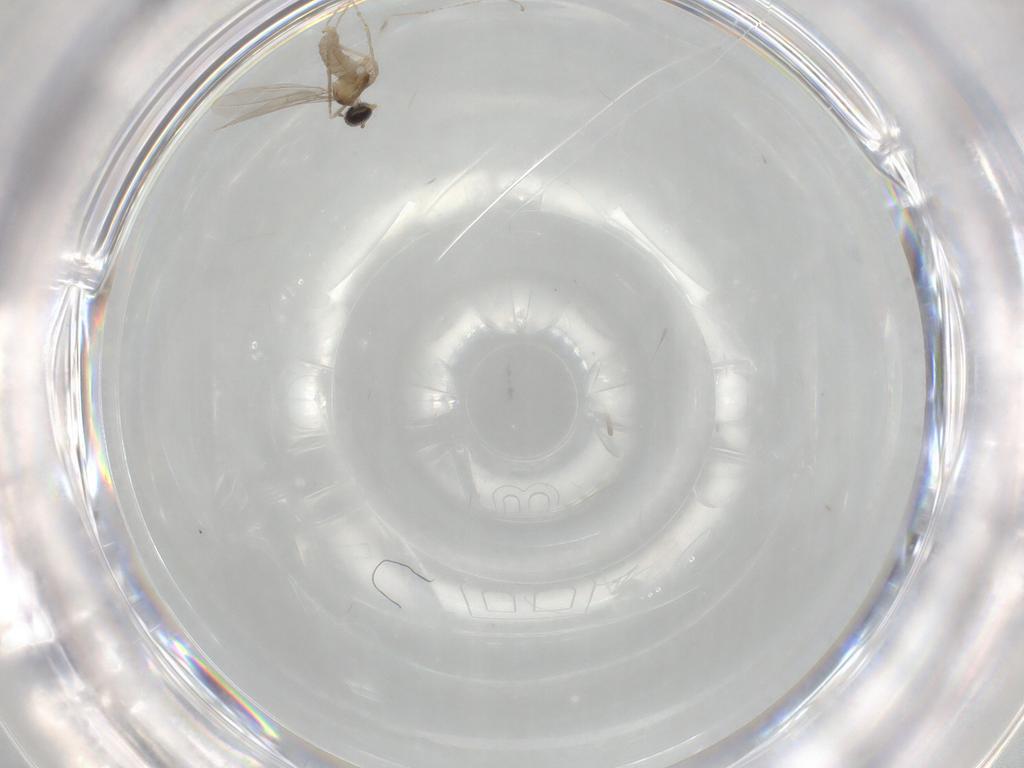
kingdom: Animalia
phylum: Arthropoda
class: Insecta
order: Diptera
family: Cecidomyiidae
